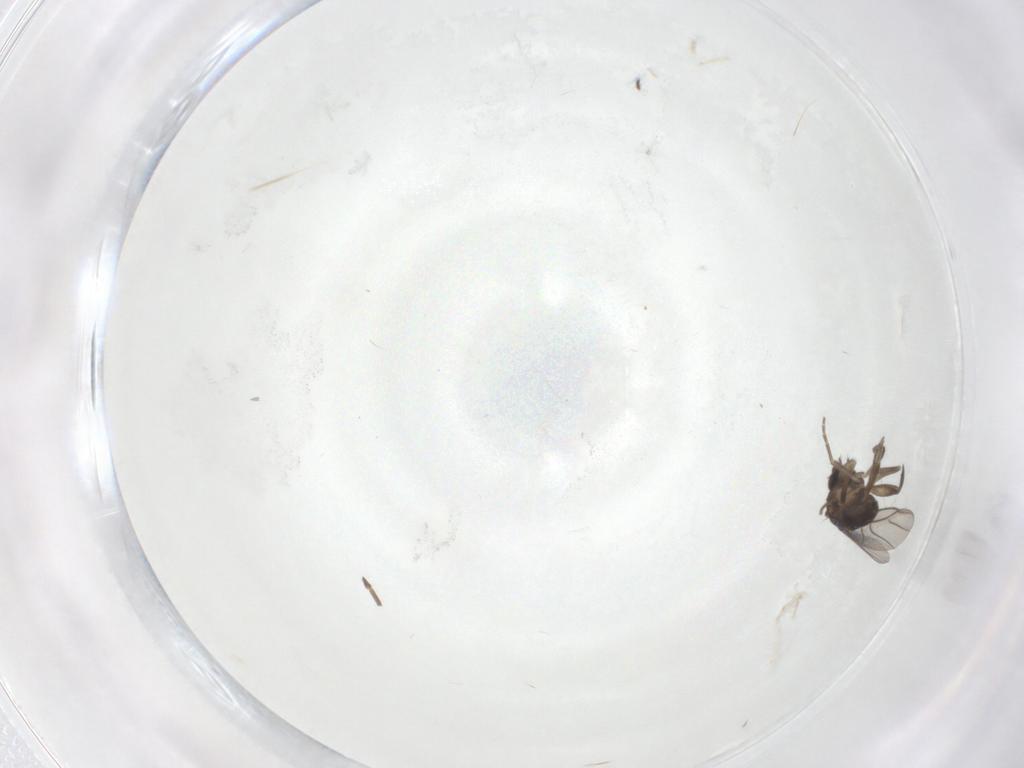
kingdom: Animalia
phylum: Arthropoda
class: Insecta
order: Diptera
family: Phoridae
